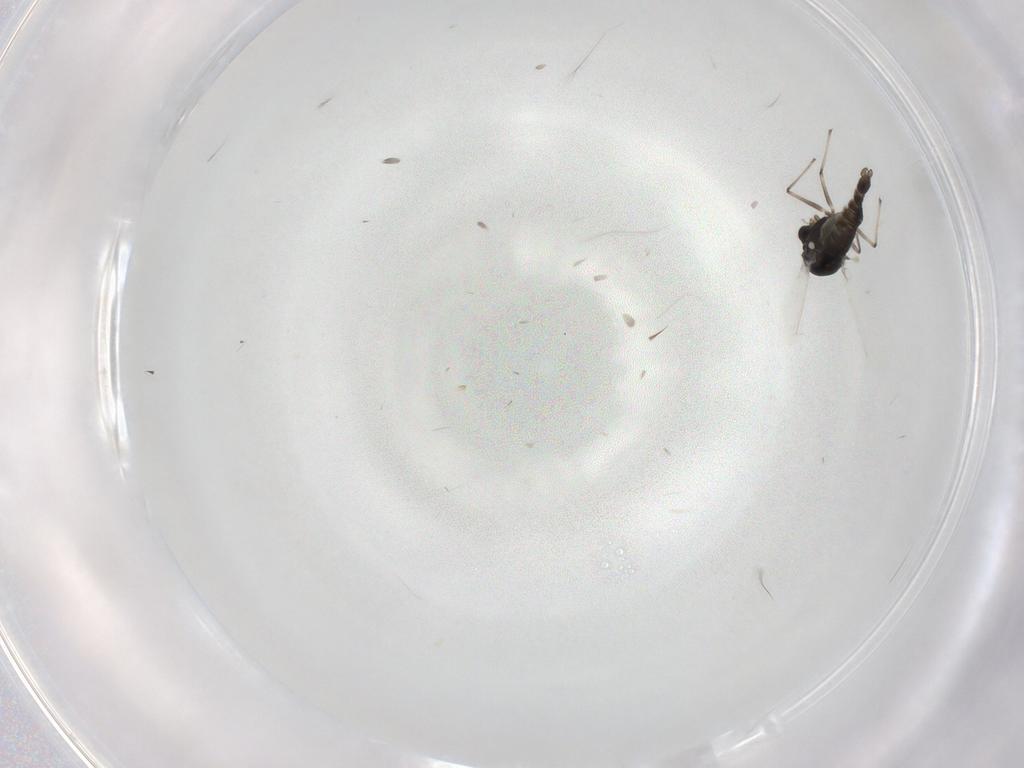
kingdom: Animalia
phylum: Arthropoda
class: Insecta
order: Diptera
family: Chironomidae
